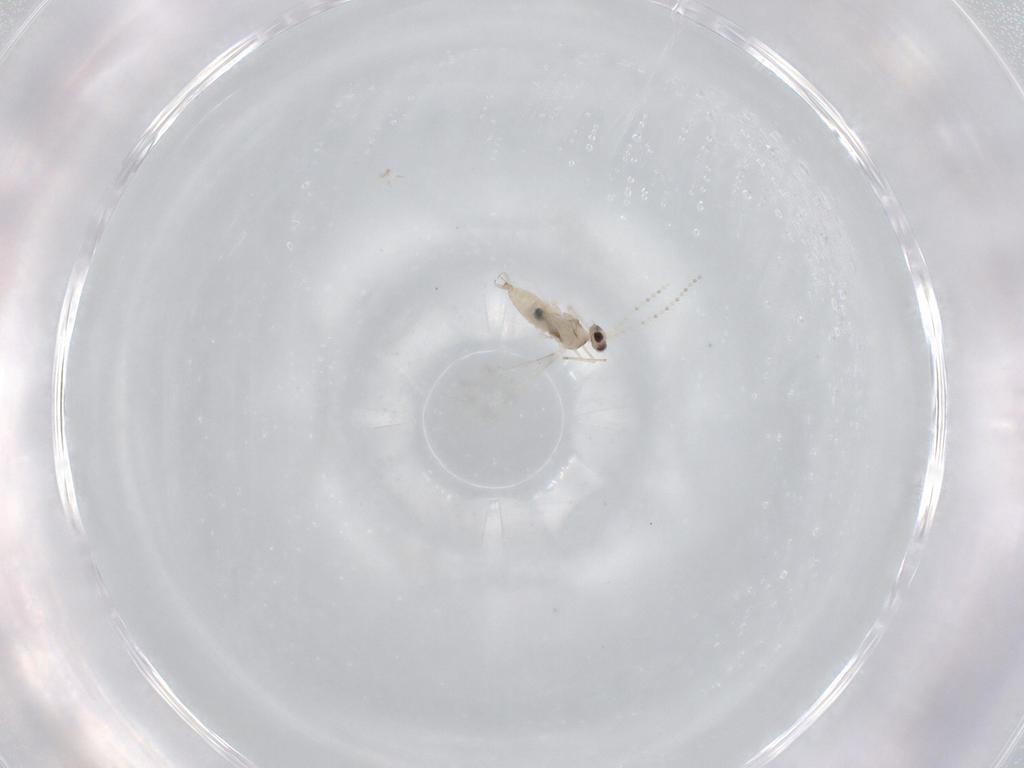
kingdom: Animalia
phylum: Arthropoda
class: Insecta
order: Diptera
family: Cecidomyiidae
